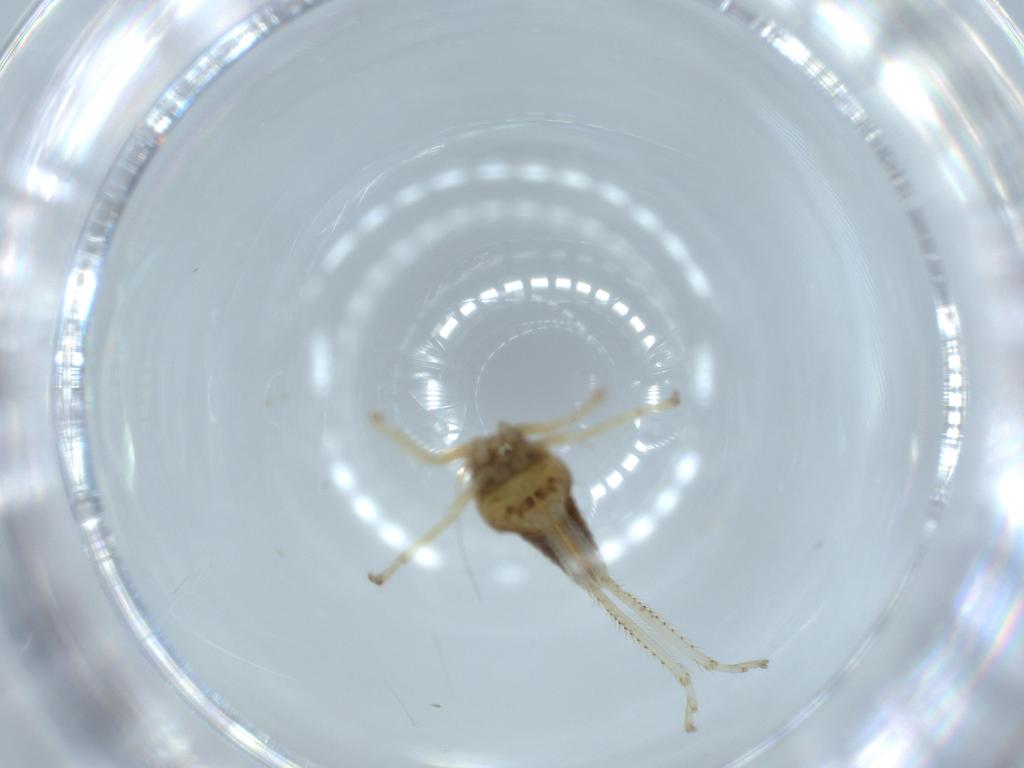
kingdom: Animalia
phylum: Arthropoda
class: Insecta
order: Hemiptera
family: Cicadellidae
